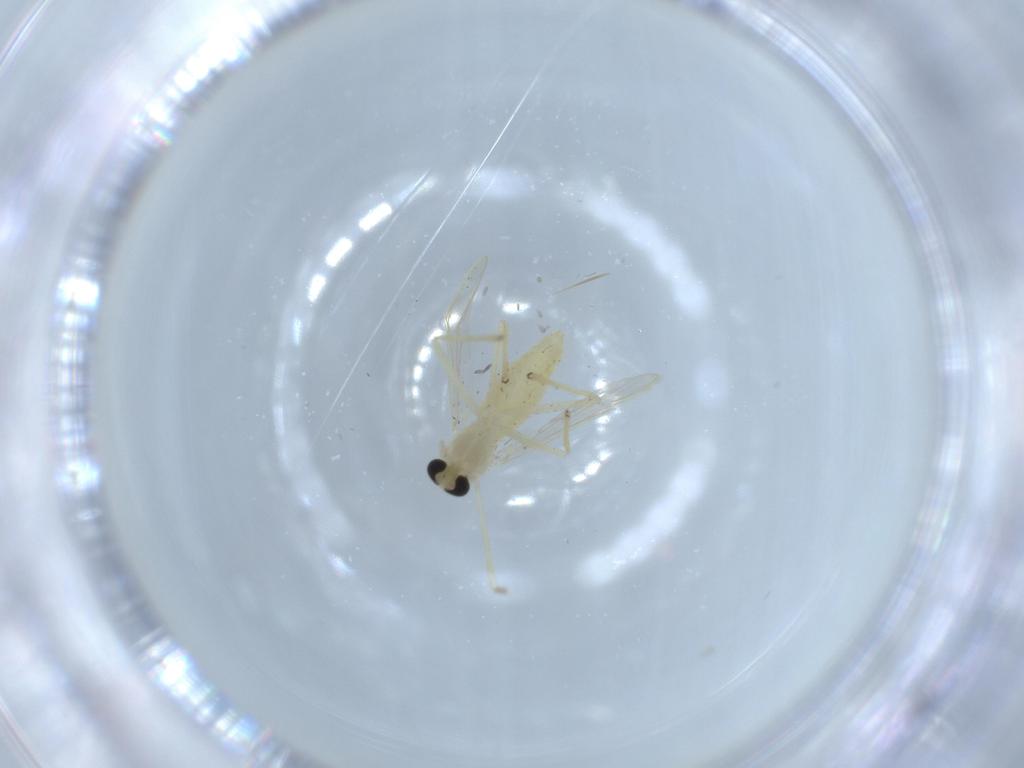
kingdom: Animalia
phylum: Arthropoda
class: Insecta
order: Diptera
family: Chironomidae
